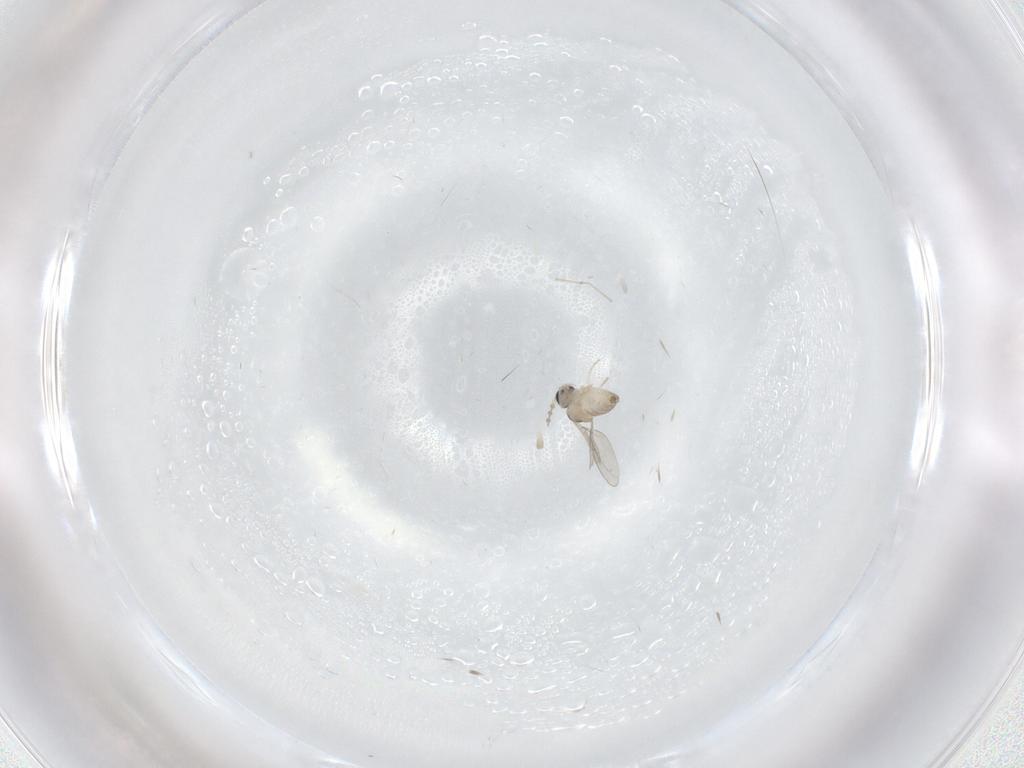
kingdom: Animalia
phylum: Arthropoda
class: Insecta
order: Diptera
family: Cecidomyiidae
